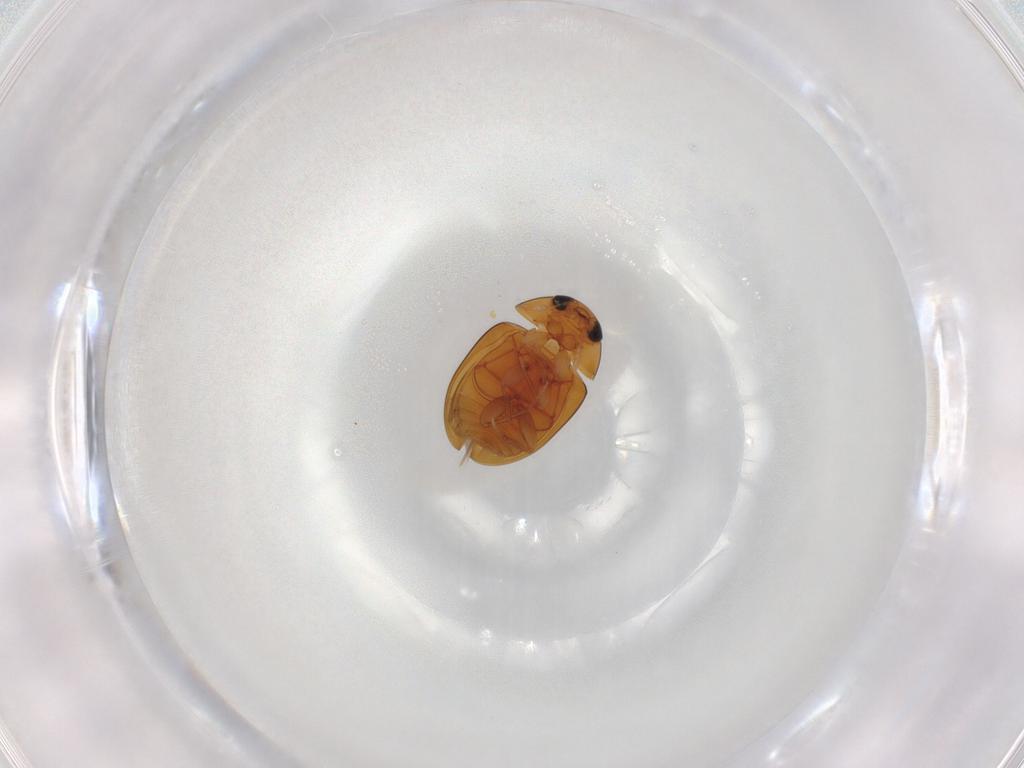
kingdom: Animalia
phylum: Arthropoda
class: Insecta
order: Coleoptera
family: Phalacridae
